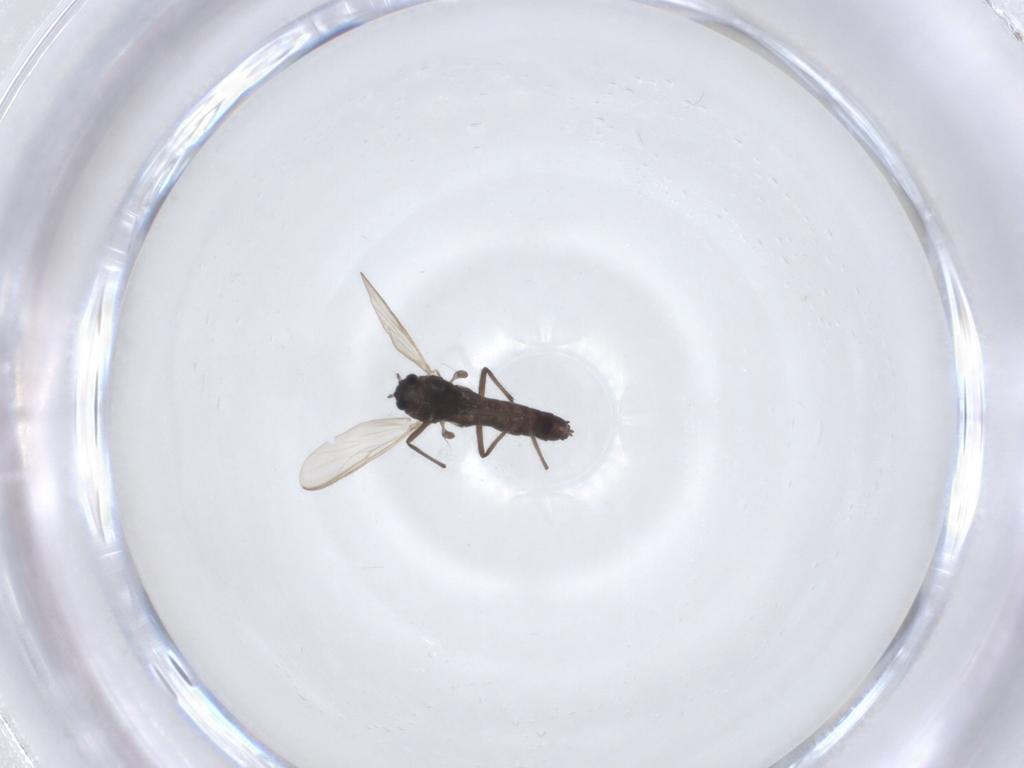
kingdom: Animalia
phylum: Arthropoda
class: Insecta
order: Diptera
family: Chironomidae
